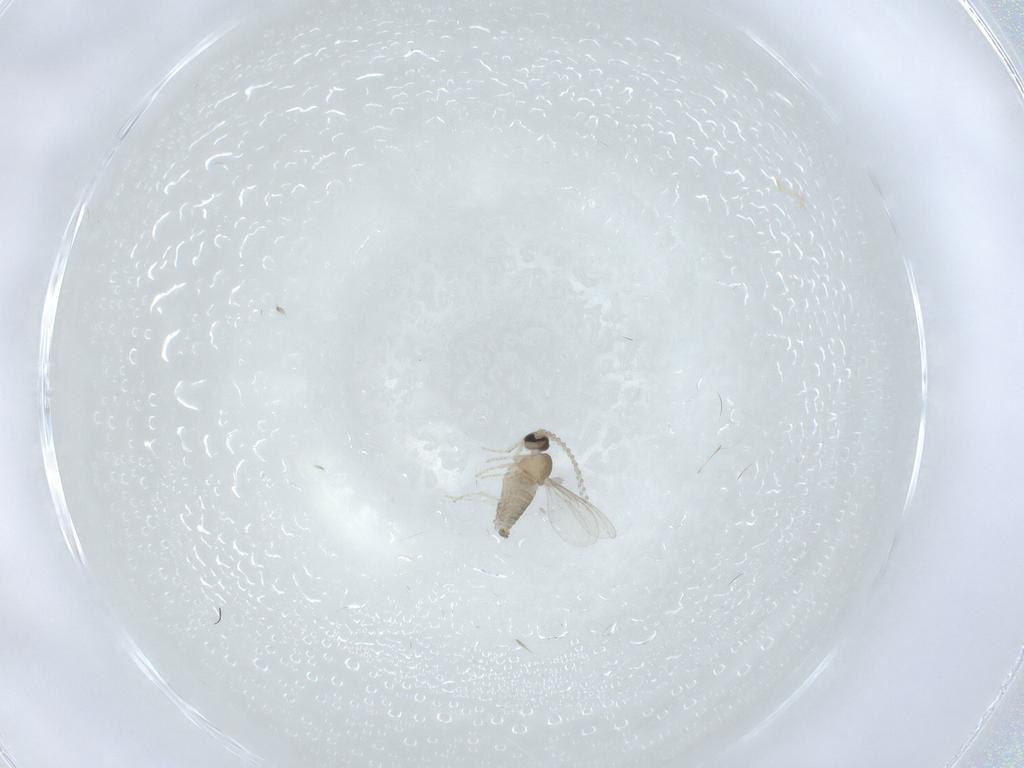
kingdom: Animalia
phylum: Arthropoda
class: Insecta
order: Diptera
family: Cecidomyiidae
